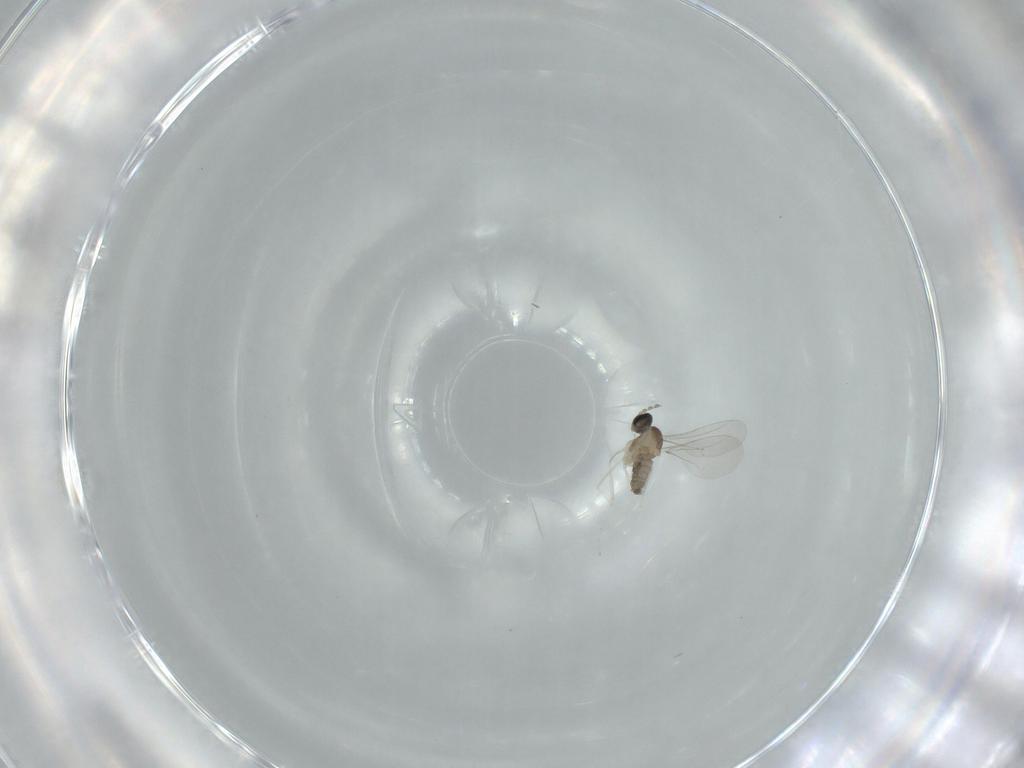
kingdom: Animalia
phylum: Arthropoda
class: Insecta
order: Diptera
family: Cecidomyiidae
